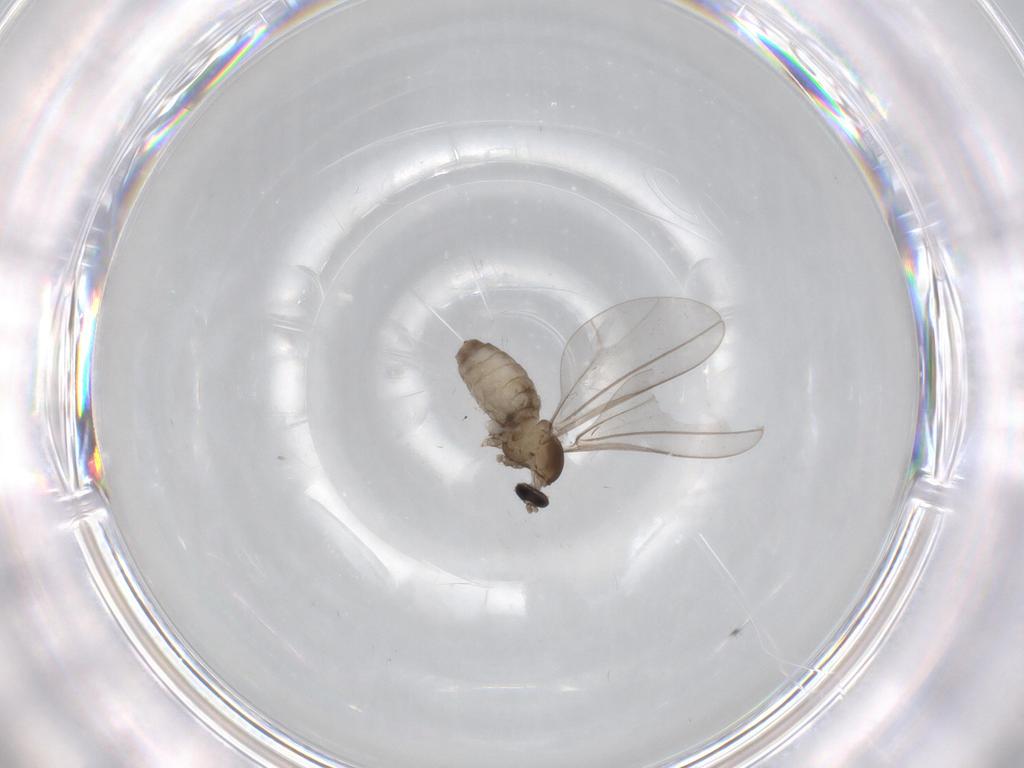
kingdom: Animalia
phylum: Arthropoda
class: Insecta
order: Diptera
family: Cecidomyiidae
